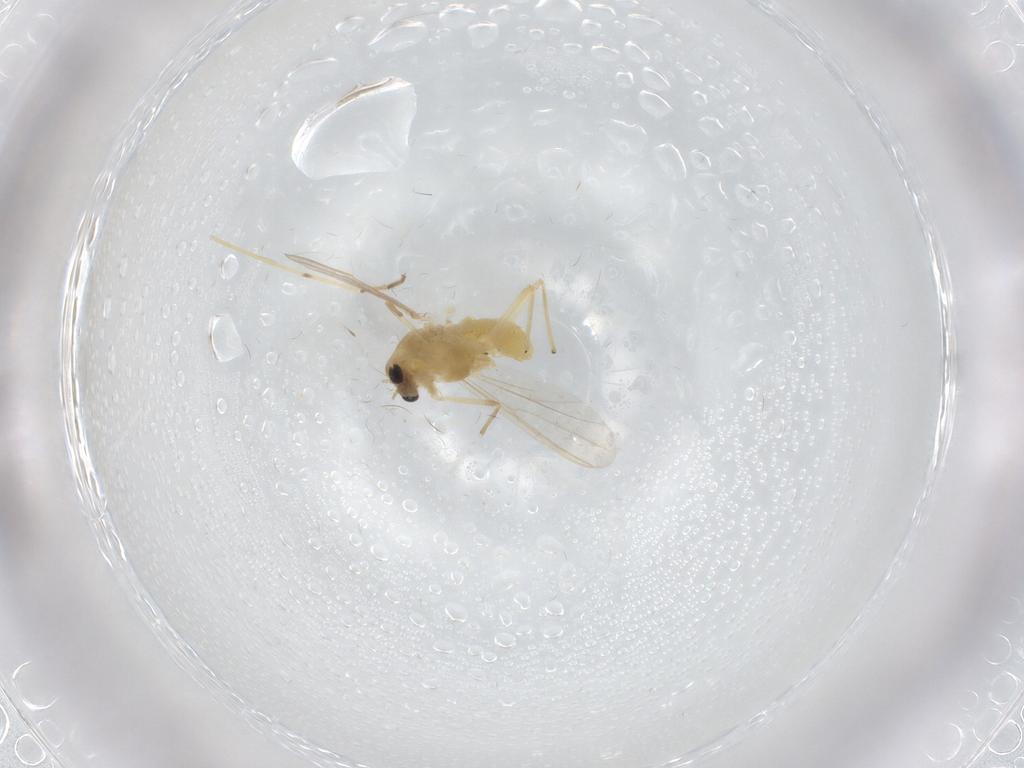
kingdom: Animalia
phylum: Arthropoda
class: Insecta
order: Diptera
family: Chironomidae
